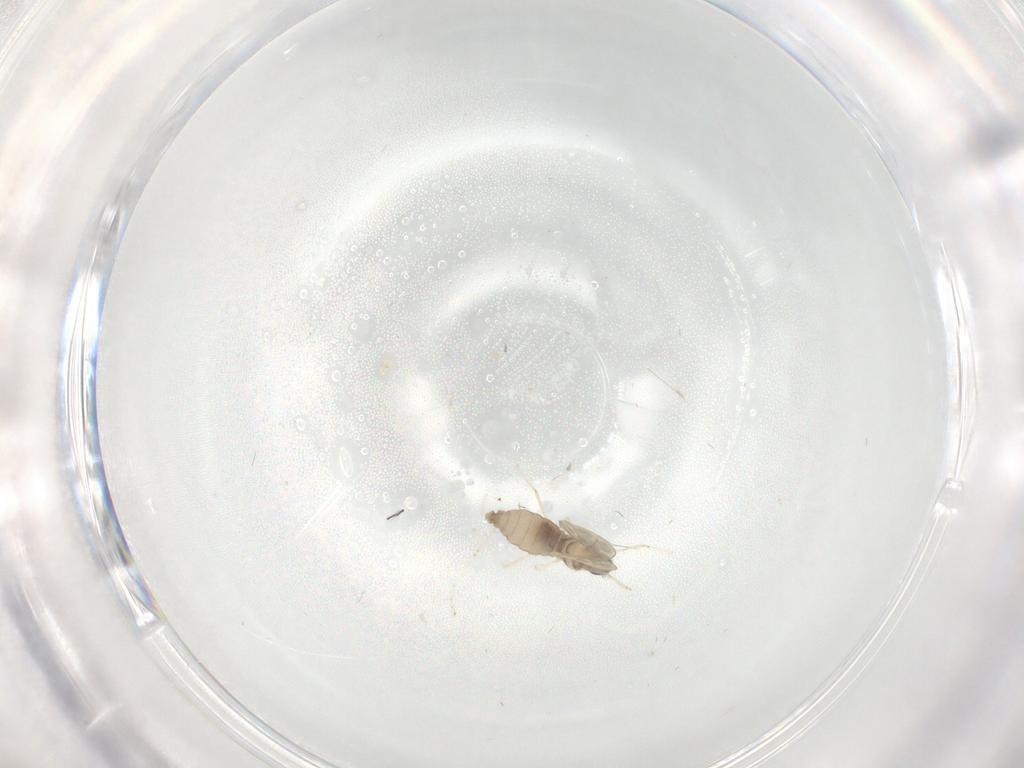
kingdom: Animalia
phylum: Arthropoda
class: Insecta
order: Diptera
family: Cecidomyiidae
